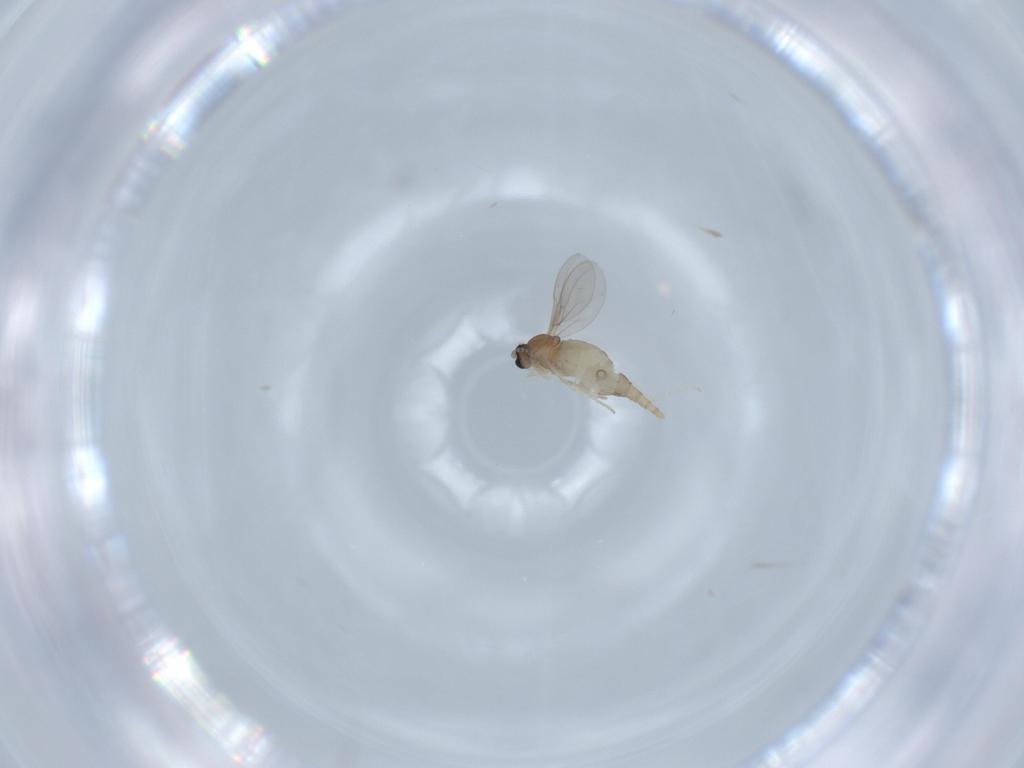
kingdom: Animalia
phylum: Arthropoda
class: Insecta
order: Diptera
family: Cecidomyiidae
